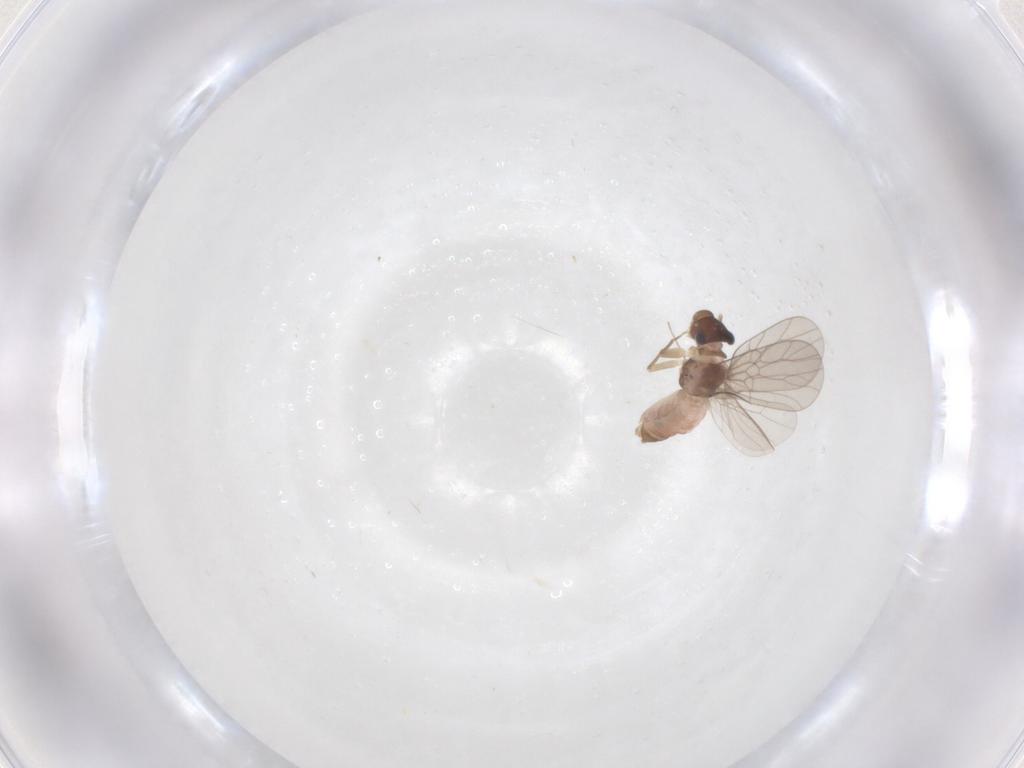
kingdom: Animalia
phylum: Arthropoda
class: Insecta
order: Psocodea
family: Lepidopsocidae
